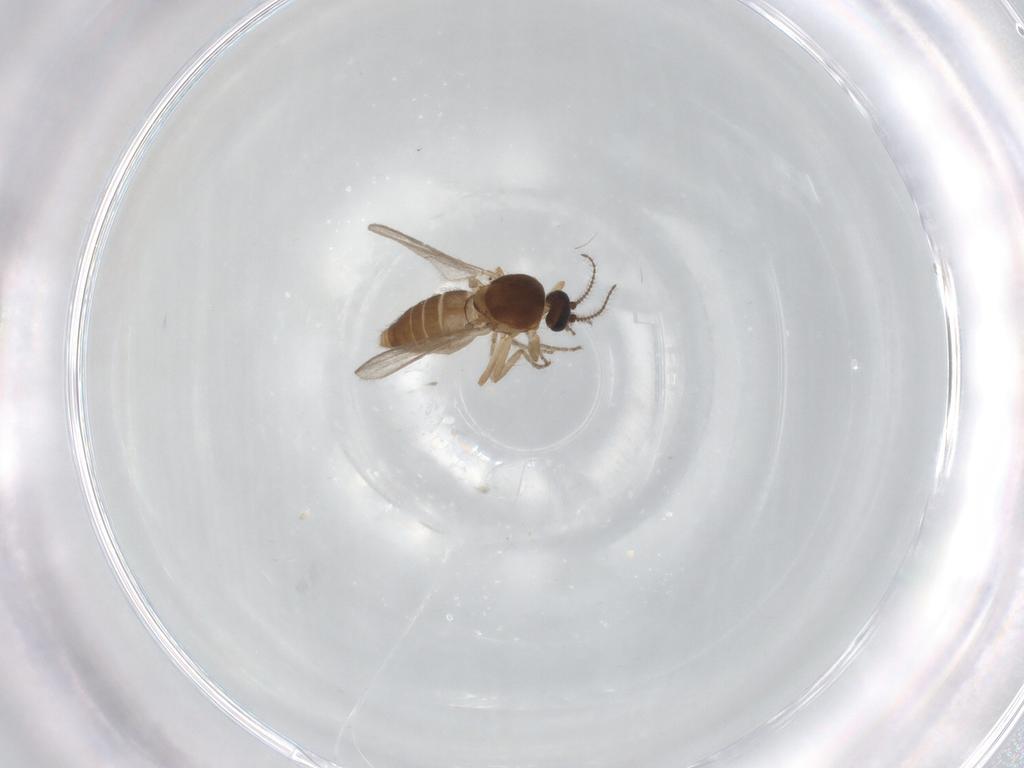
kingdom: Animalia
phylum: Arthropoda
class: Insecta
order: Diptera
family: Ceratopogonidae
